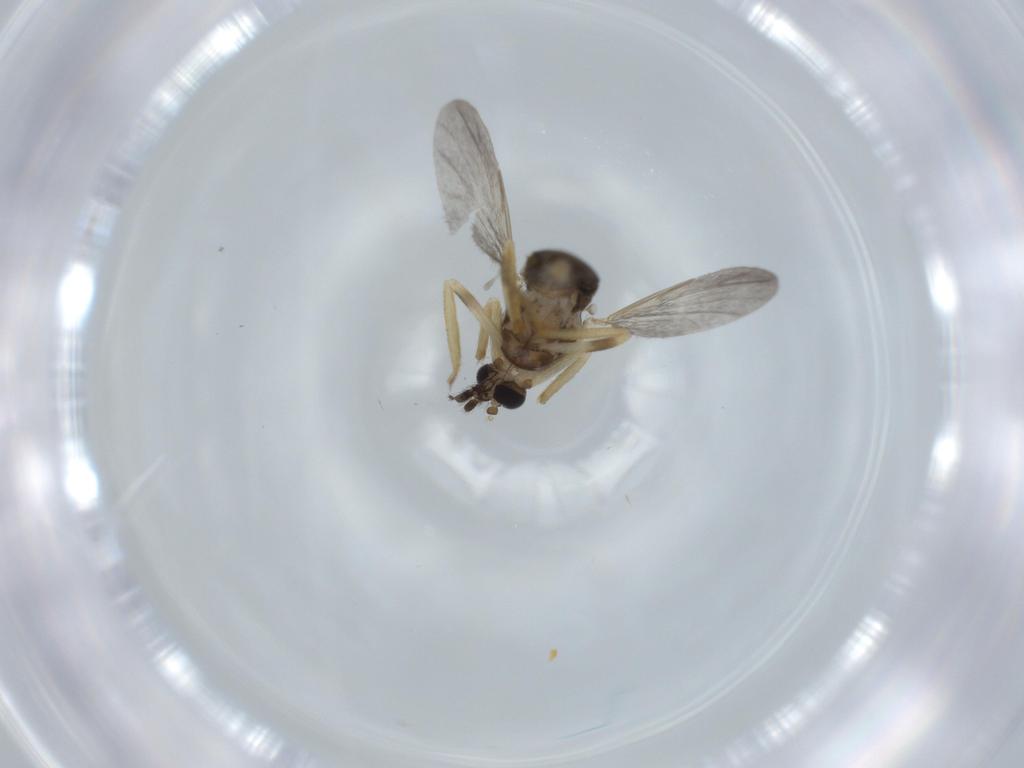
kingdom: Animalia
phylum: Arthropoda
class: Insecta
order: Diptera
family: Ceratopogonidae
